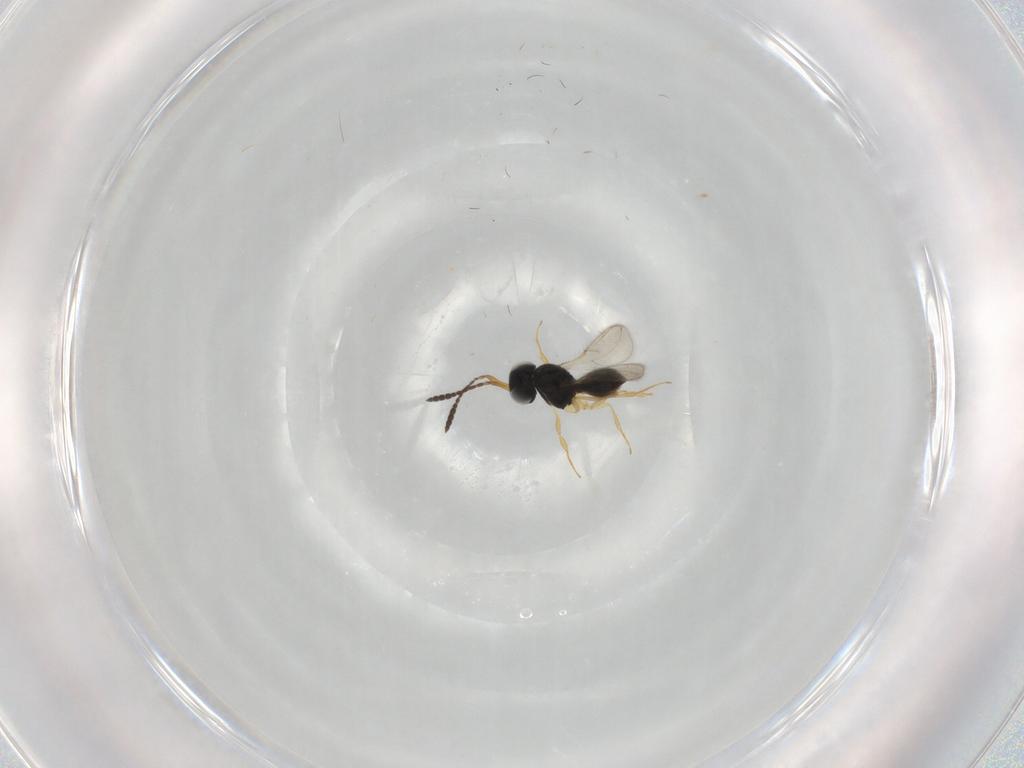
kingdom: Animalia
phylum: Arthropoda
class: Insecta
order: Hymenoptera
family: Scelionidae
